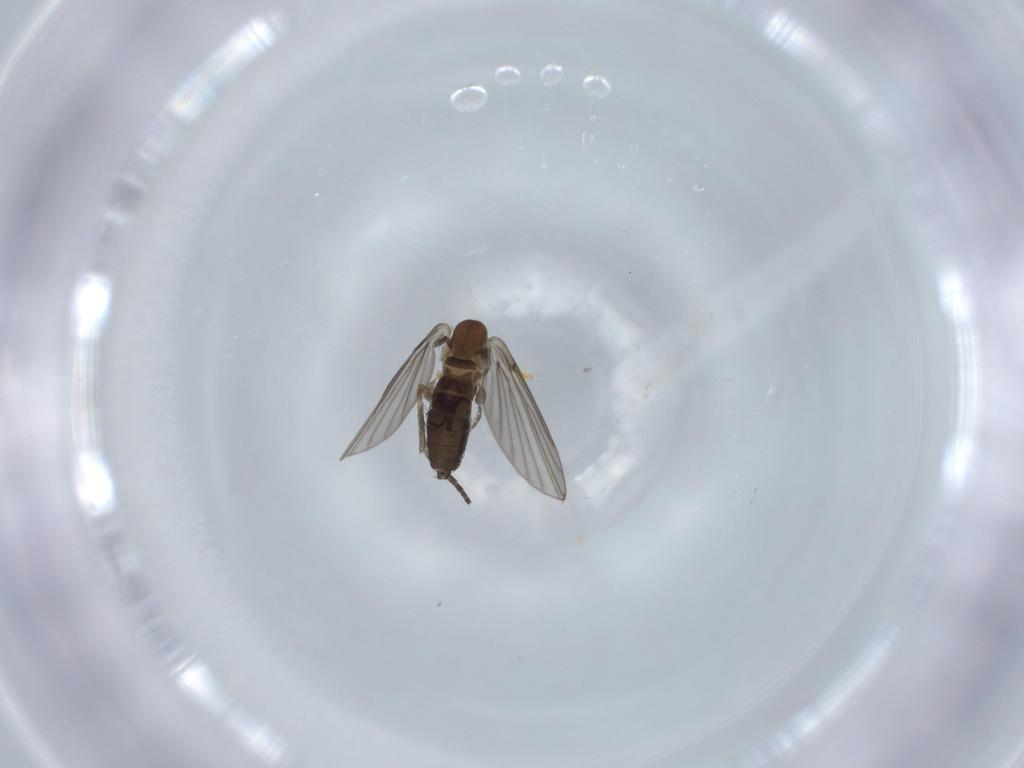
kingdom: Animalia
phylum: Arthropoda
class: Insecta
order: Diptera
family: Psychodidae
